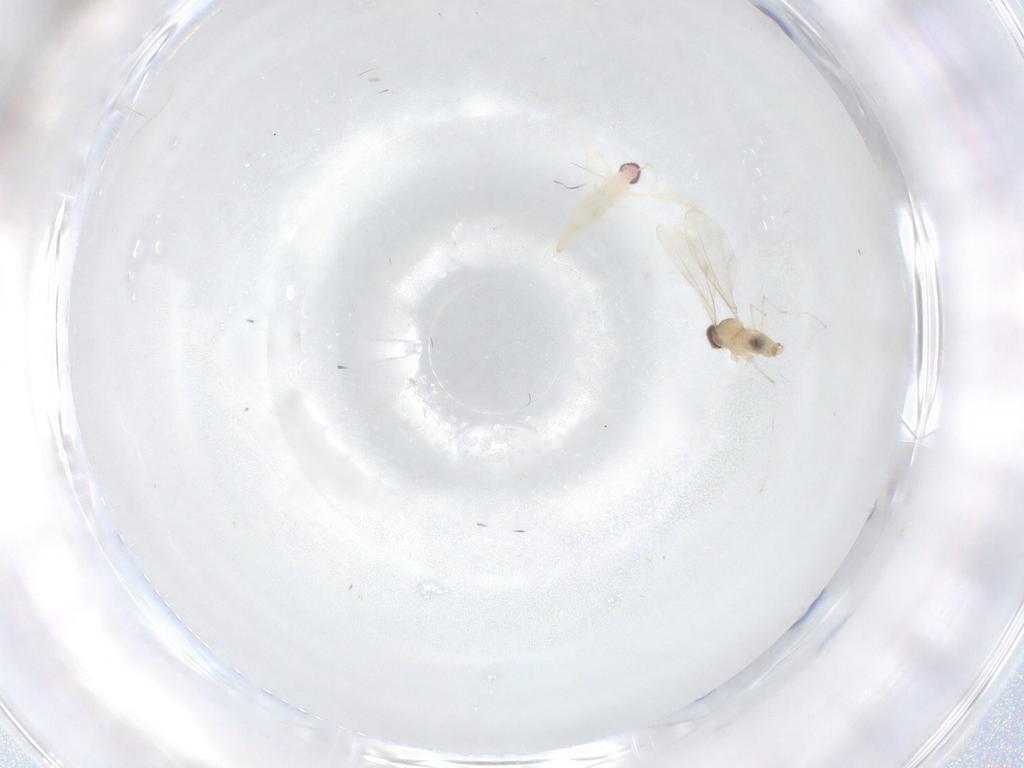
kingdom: Animalia
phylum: Arthropoda
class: Insecta
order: Diptera
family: Cecidomyiidae
